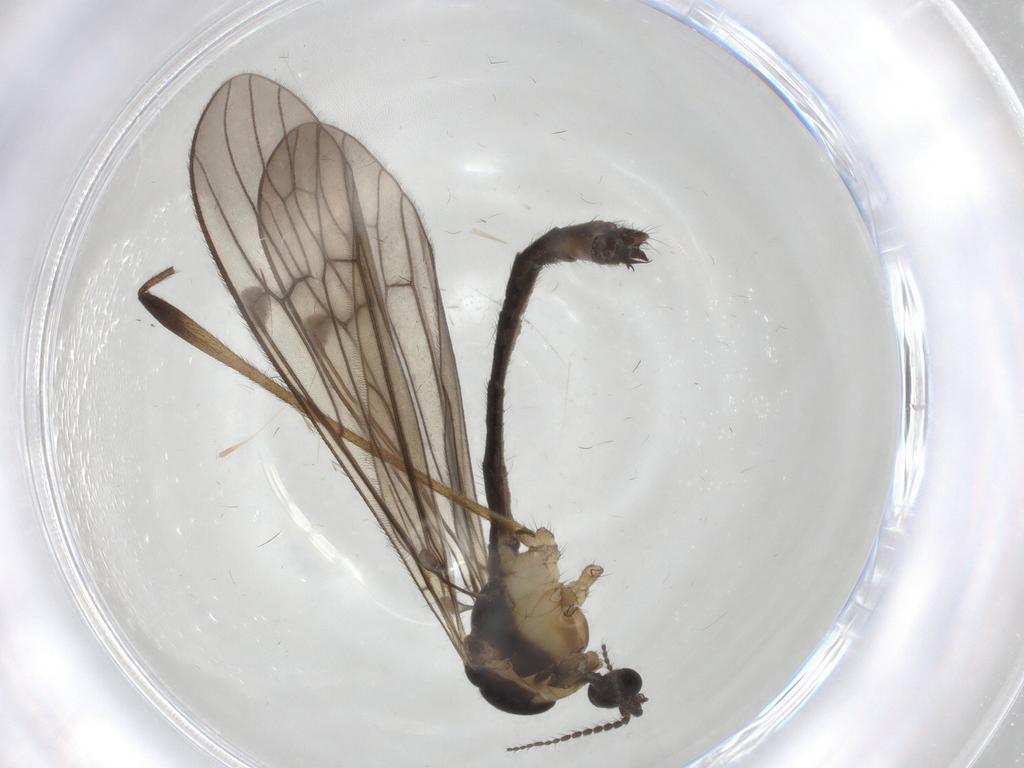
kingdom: Animalia
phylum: Arthropoda
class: Insecta
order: Diptera
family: Limoniidae
